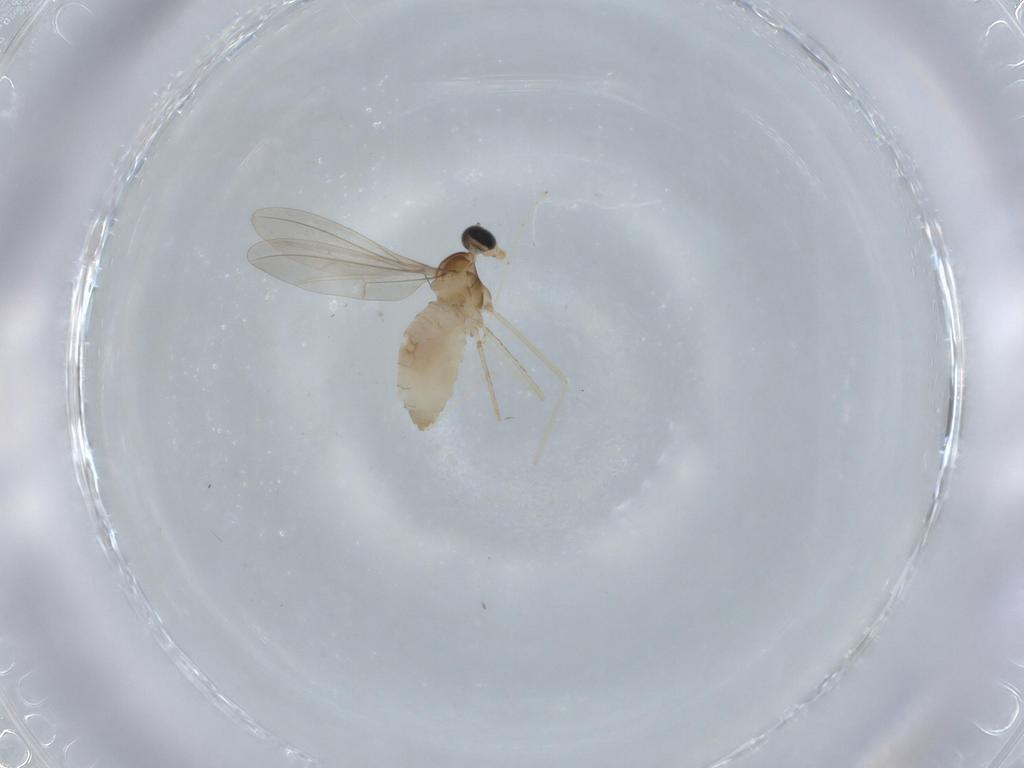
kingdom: Animalia
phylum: Arthropoda
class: Insecta
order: Diptera
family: Cecidomyiidae
